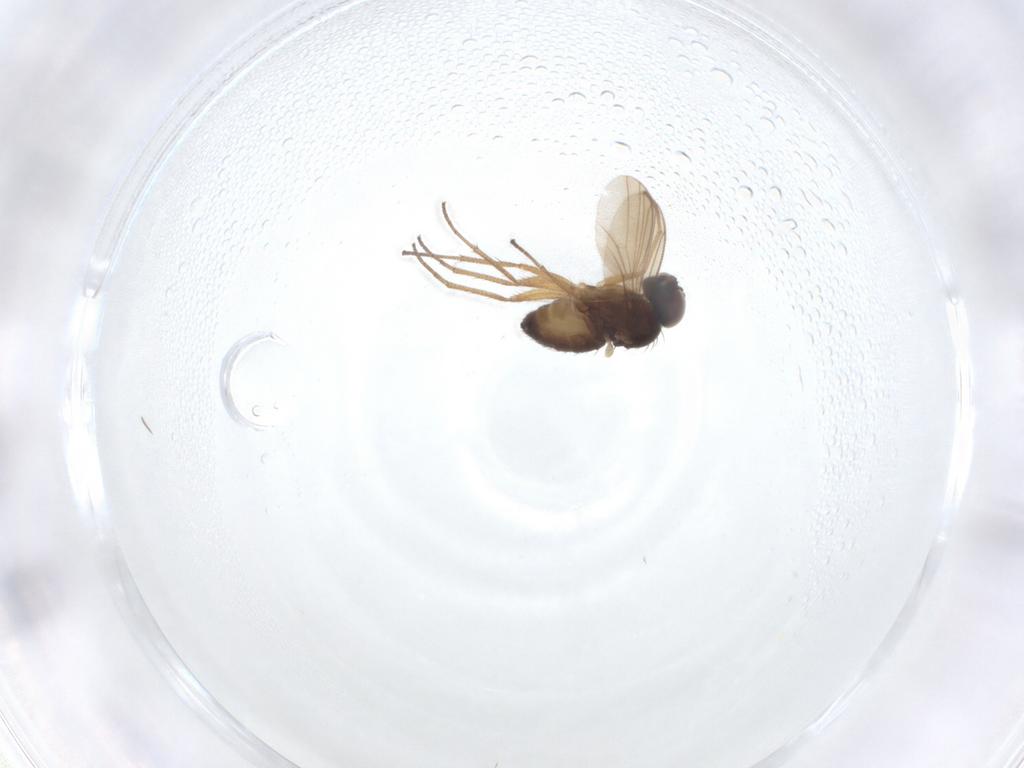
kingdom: Animalia
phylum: Arthropoda
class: Insecta
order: Diptera
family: Dolichopodidae
